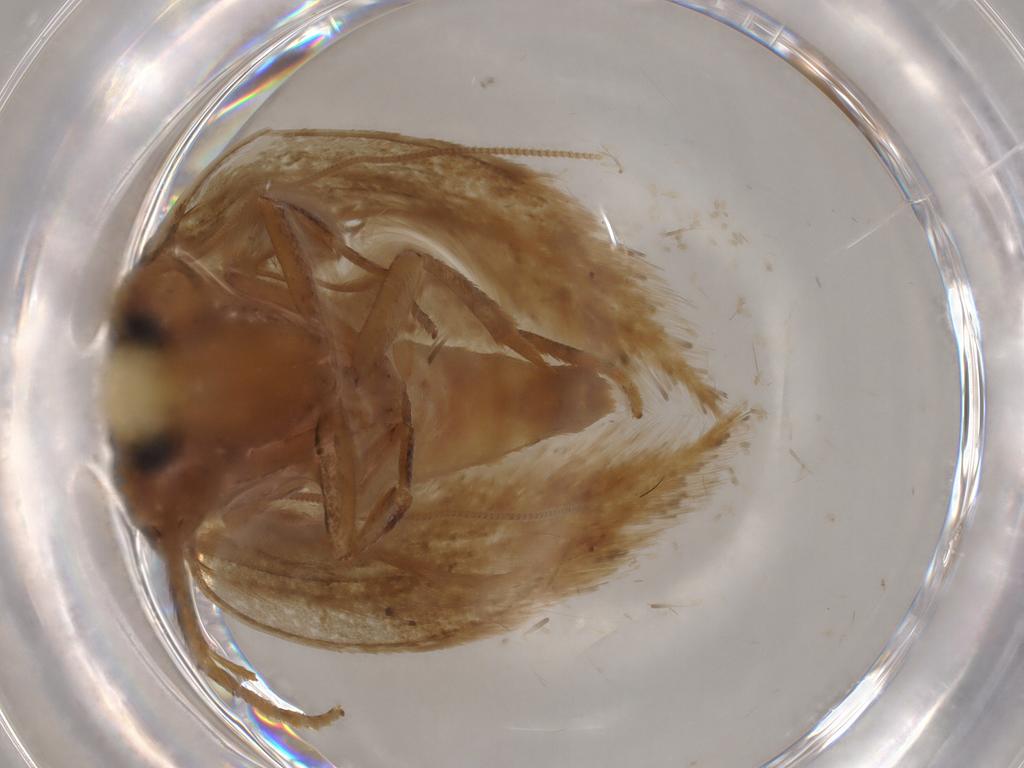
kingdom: Animalia
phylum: Arthropoda
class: Insecta
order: Lepidoptera
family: Nepticulidae
